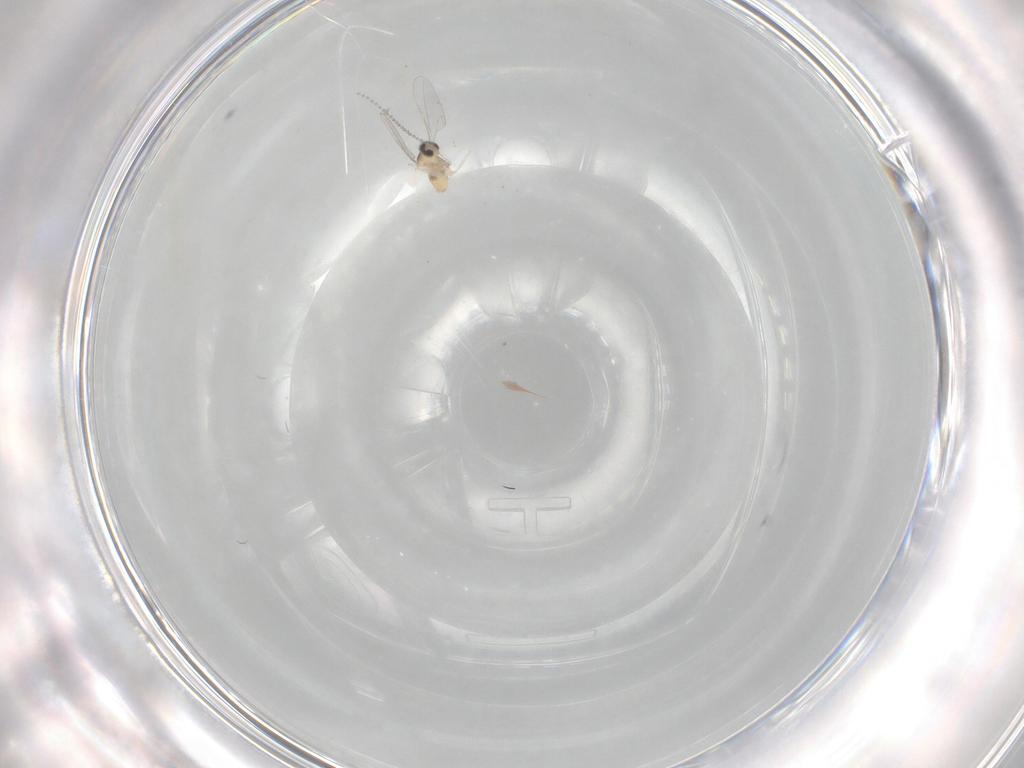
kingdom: Animalia
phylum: Arthropoda
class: Insecta
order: Diptera
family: Cecidomyiidae
